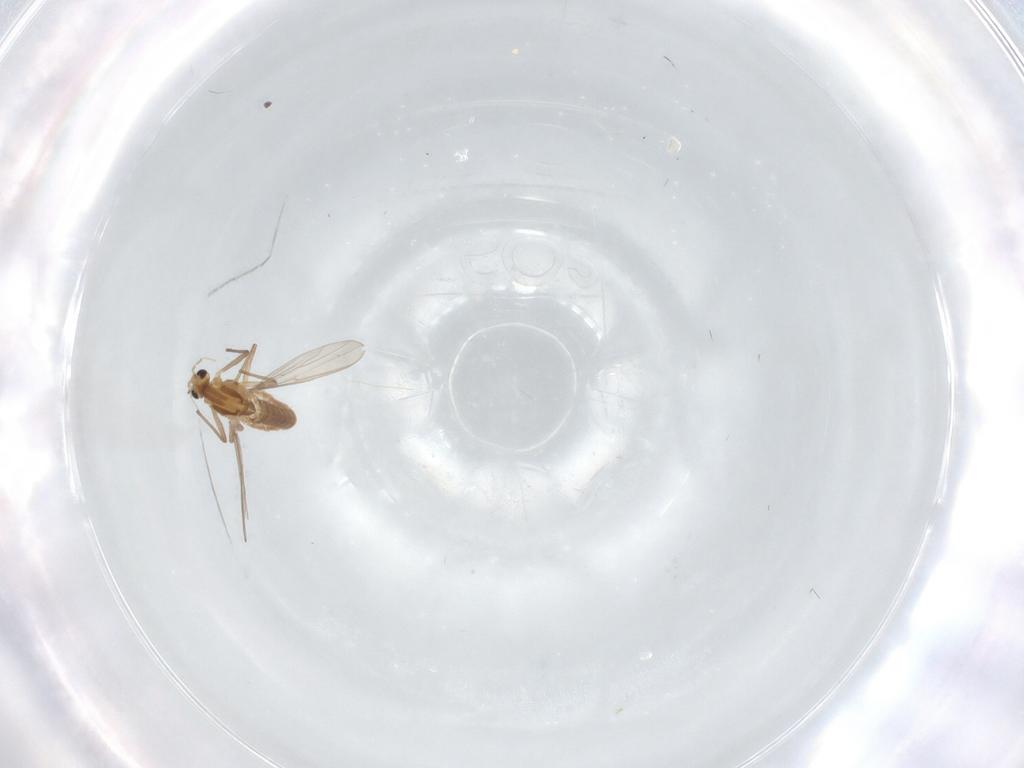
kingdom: Animalia
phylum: Arthropoda
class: Insecta
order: Diptera
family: Chironomidae
